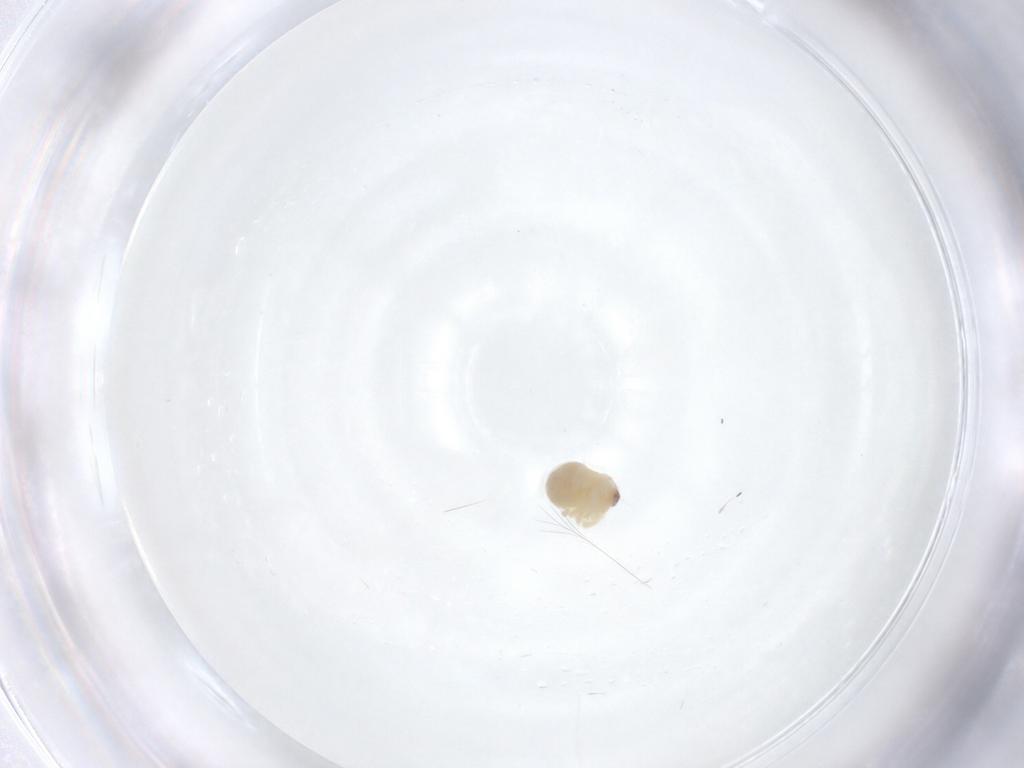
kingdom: Animalia
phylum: Arthropoda
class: Arachnida
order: Araneae
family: Pholcidae
